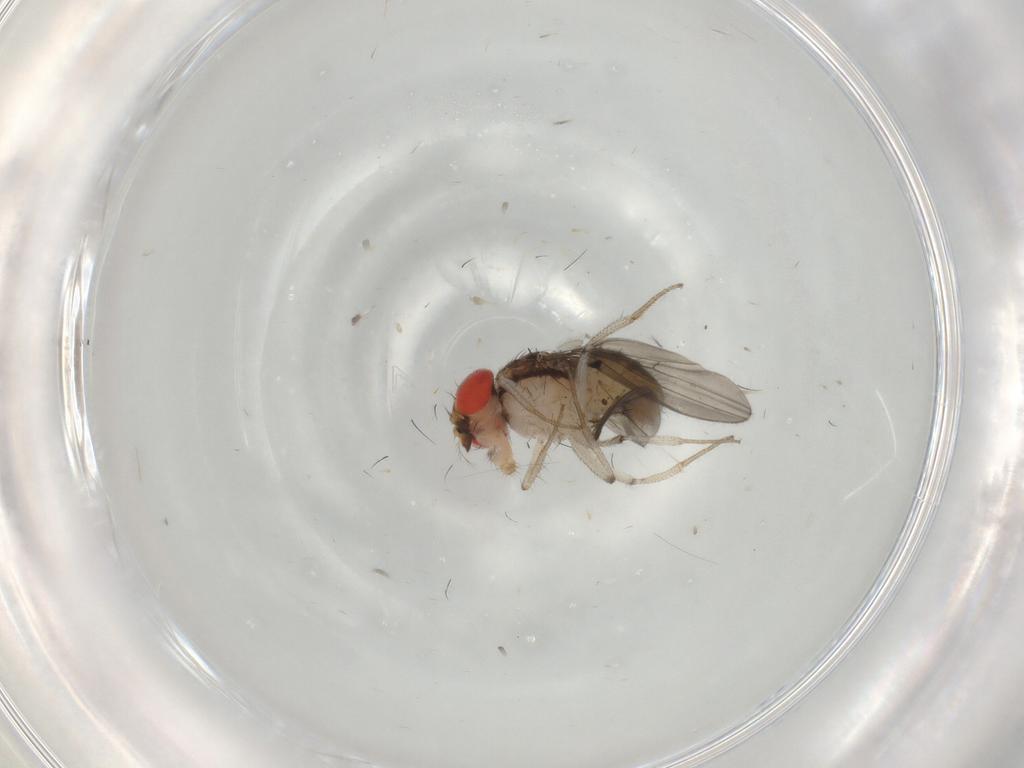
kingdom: Animalia
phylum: Arthropoda
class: Insecta
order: Diptera
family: Drosophilidae
